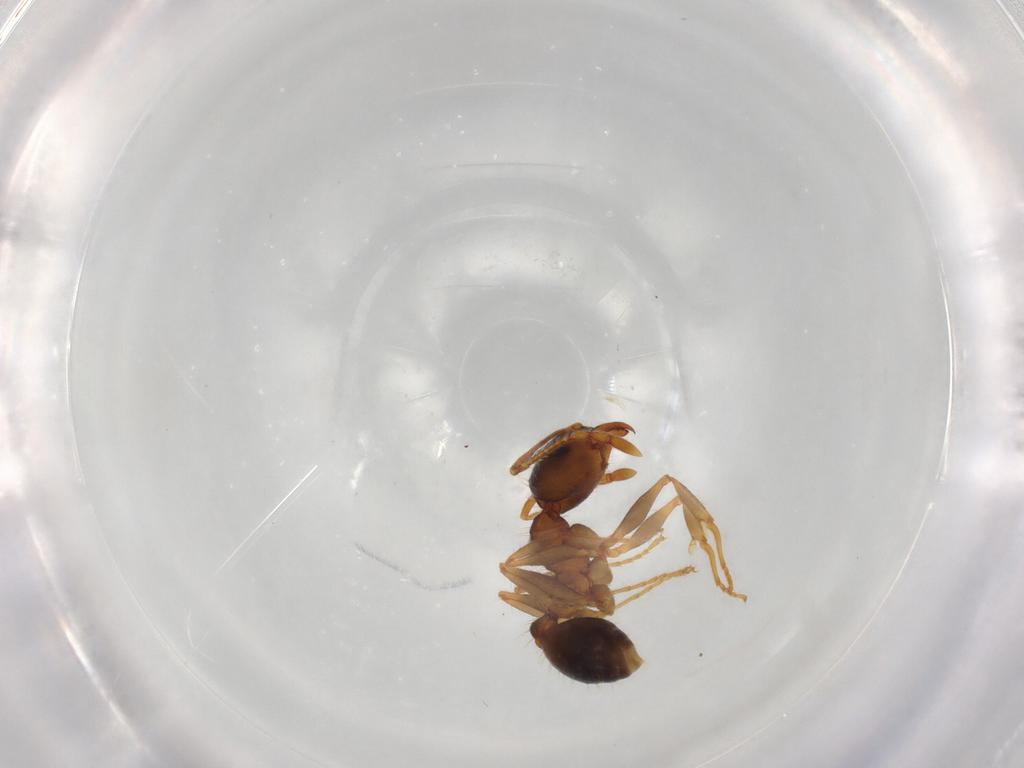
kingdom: Animalia
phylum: Arthropoda
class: Insecta
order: Hymenoptera
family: Formicidae
